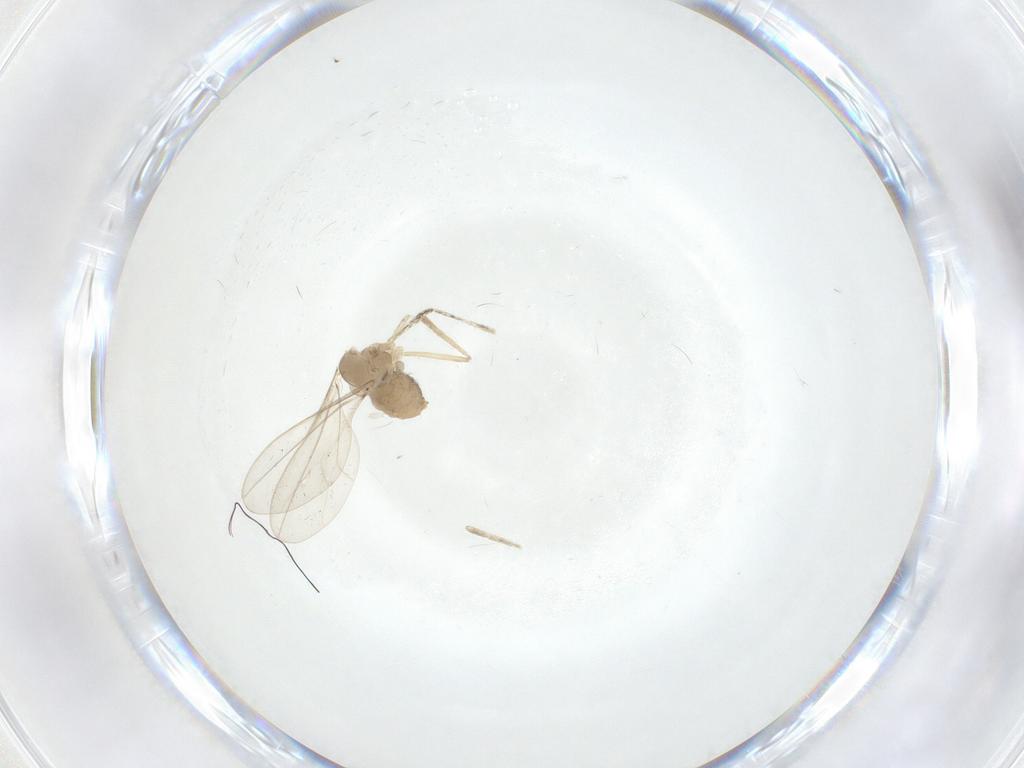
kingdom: Animalia
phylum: Arthropoda
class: Insecta
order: Diptera
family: Cecidomyiidae
